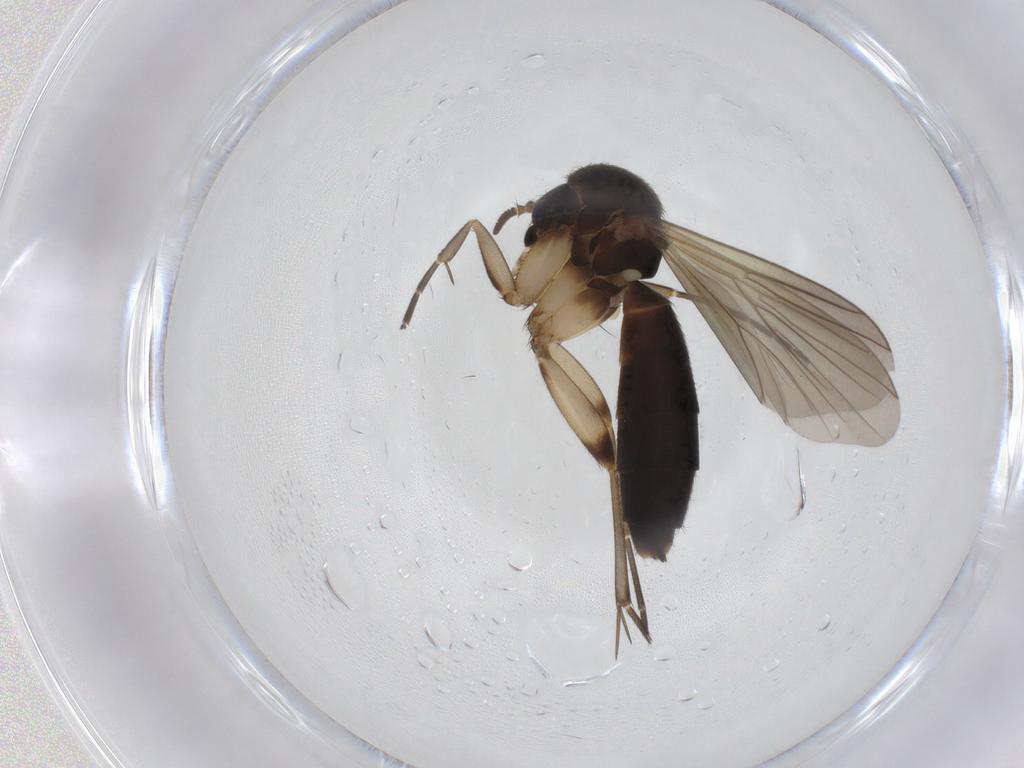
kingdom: Animalia
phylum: Arthropoda
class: Insecta
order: Diptera
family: Mycetophilidae
